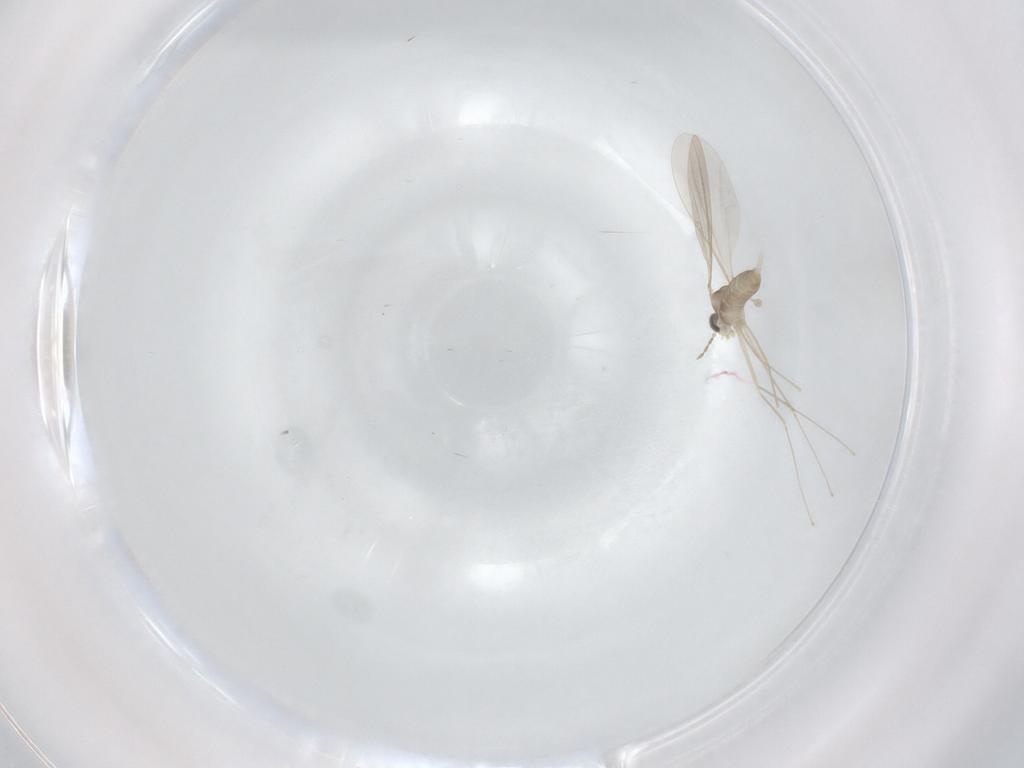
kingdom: Animalia
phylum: Arthropoda
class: Insecta
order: Diptera
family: Cecidomyiidae
